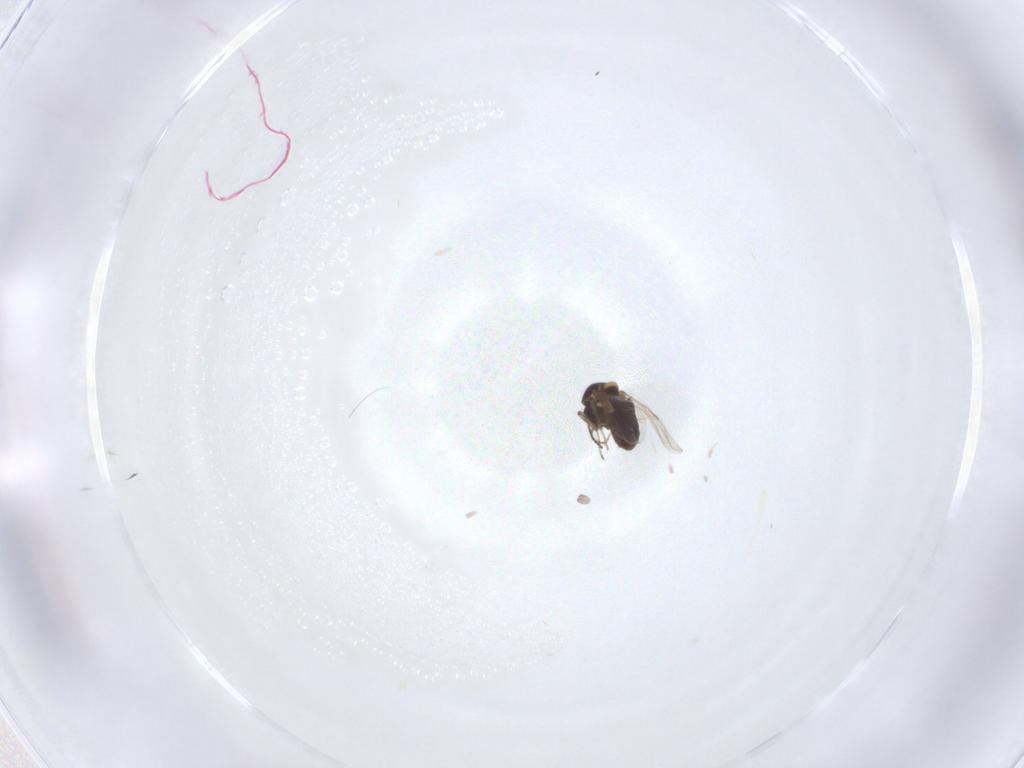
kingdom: Animalia
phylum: Arthropoda
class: Insecta
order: Diptera
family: Ceratopogonidae
